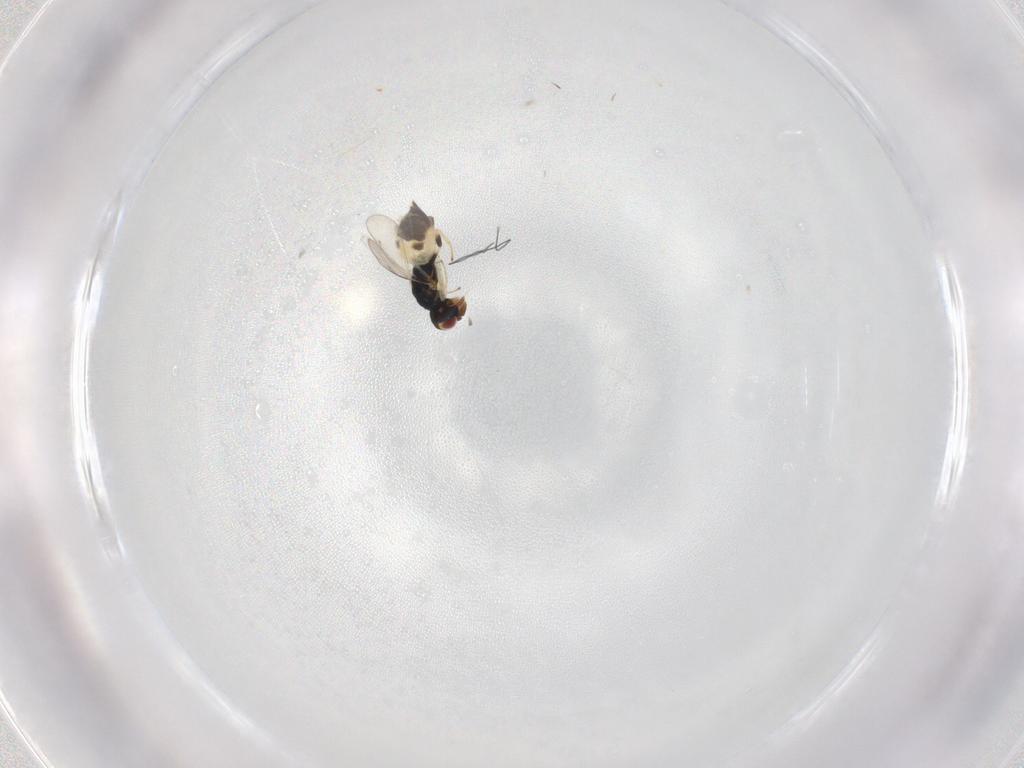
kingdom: Animalia
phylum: Arthropoda
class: Insecta
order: Hymenoptera
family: Formicidae
